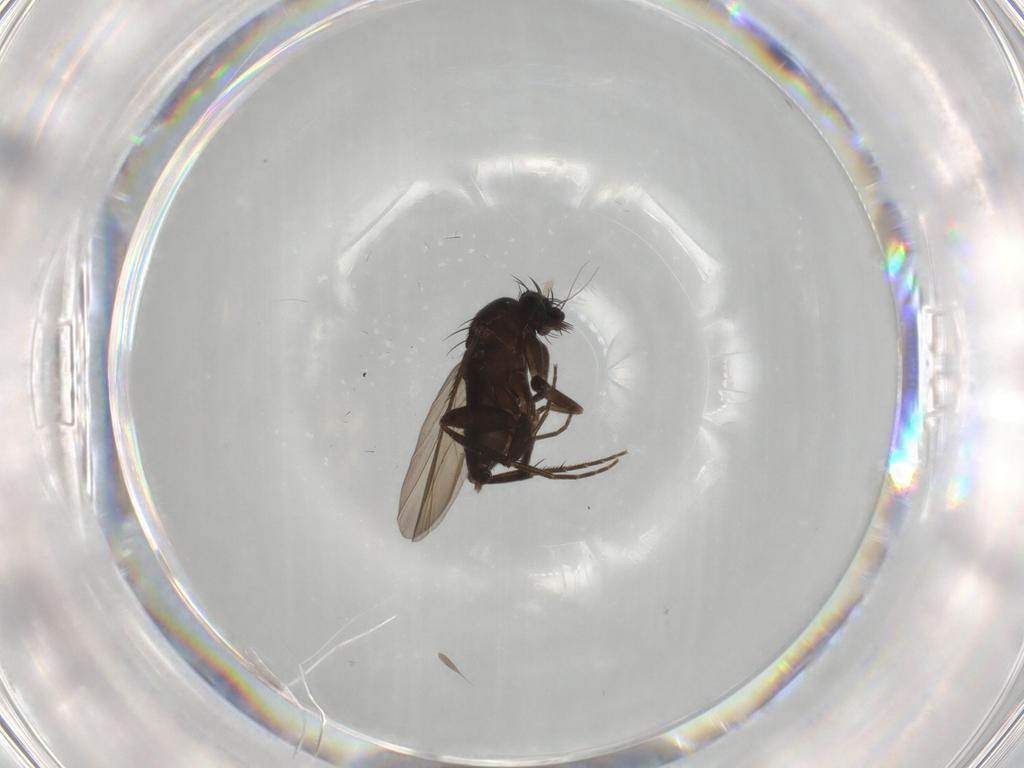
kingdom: Animalia
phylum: Arthropoda
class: Insecta
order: Diptera
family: Phoridae
